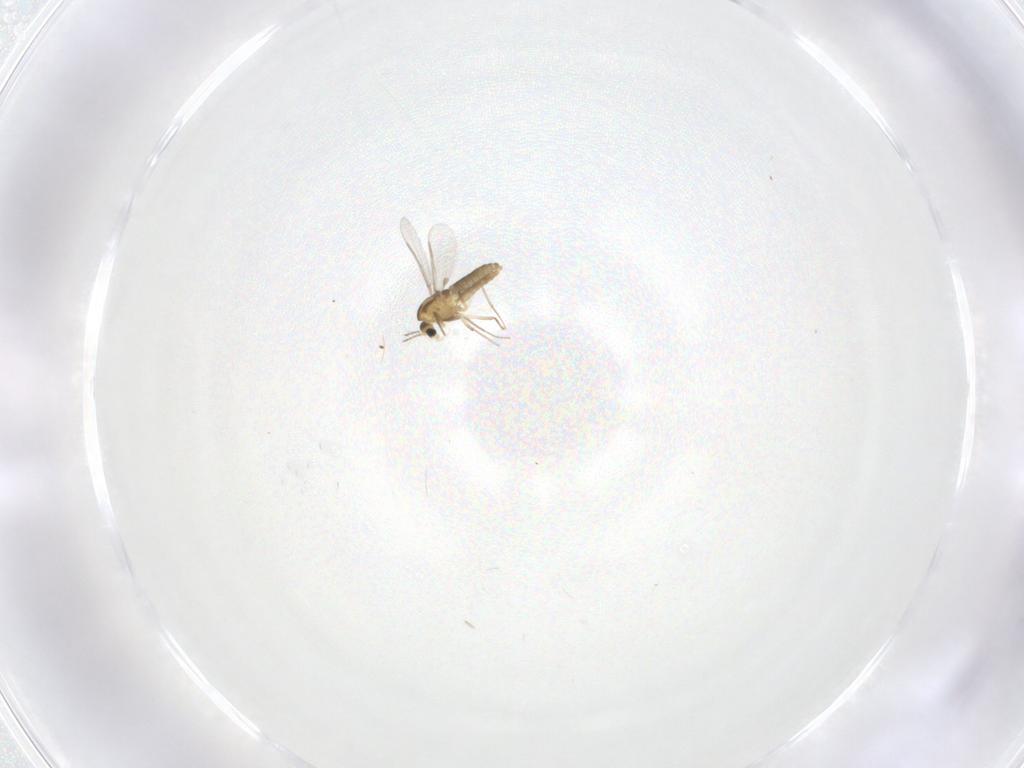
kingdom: Animalia
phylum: Arthropoda
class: Insecta
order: Diptera
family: Chironomidae
